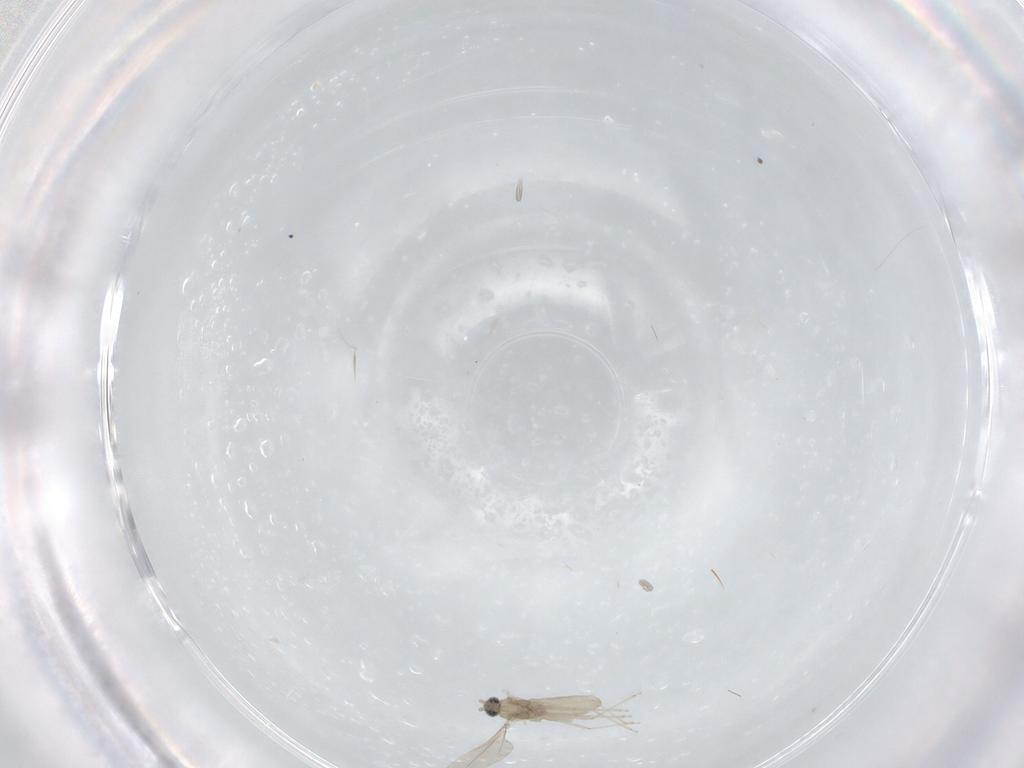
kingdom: Animalia
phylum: Arthropoda
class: Insecta
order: Diptera
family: Cecidomyiidae
